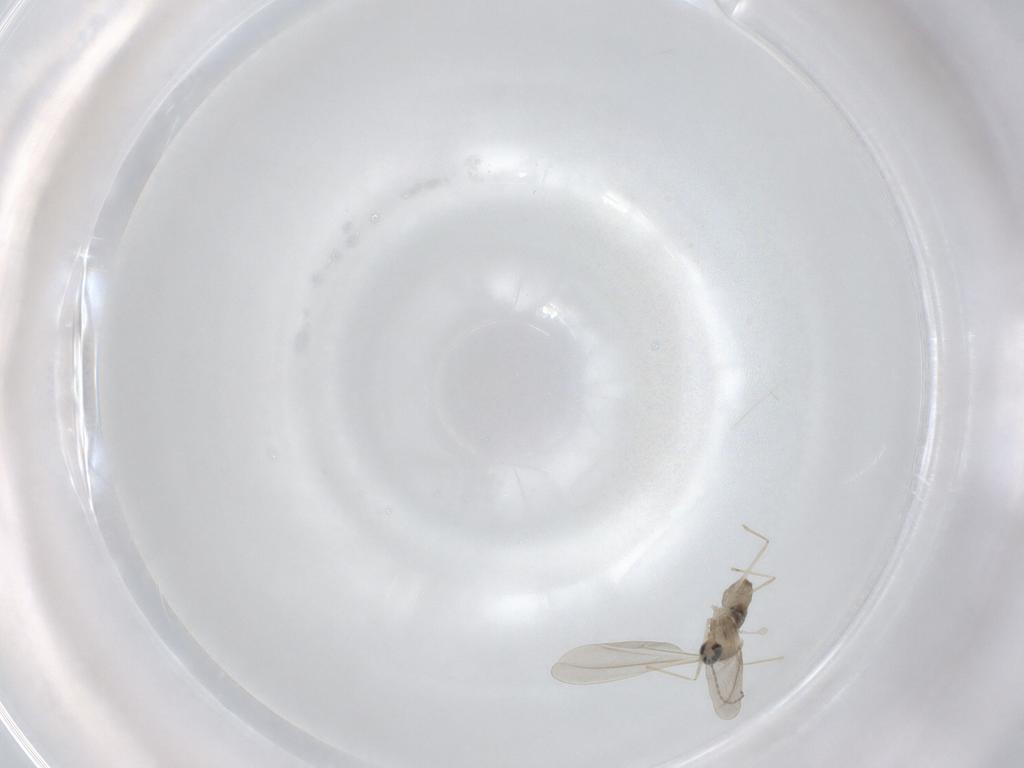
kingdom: Animalia
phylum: Arthropoda
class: Insecta
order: Diptera
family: Cecidomyiidae
